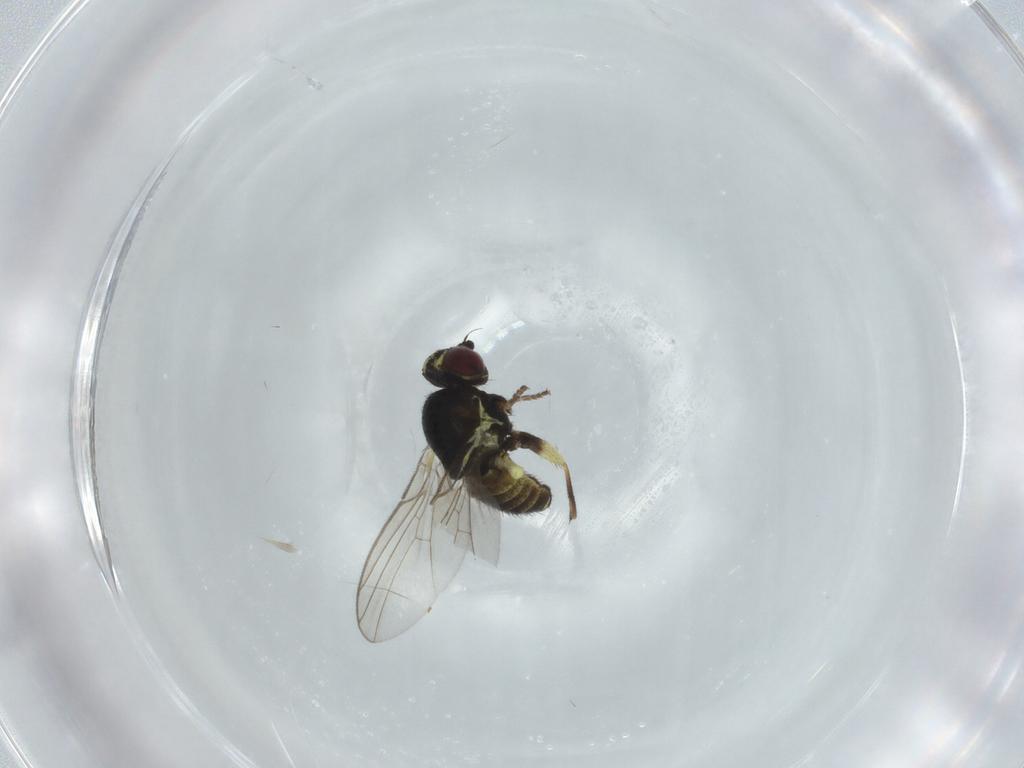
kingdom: Animalia
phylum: Arthropoda
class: Insecta
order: Diptera
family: Agromyzidae
